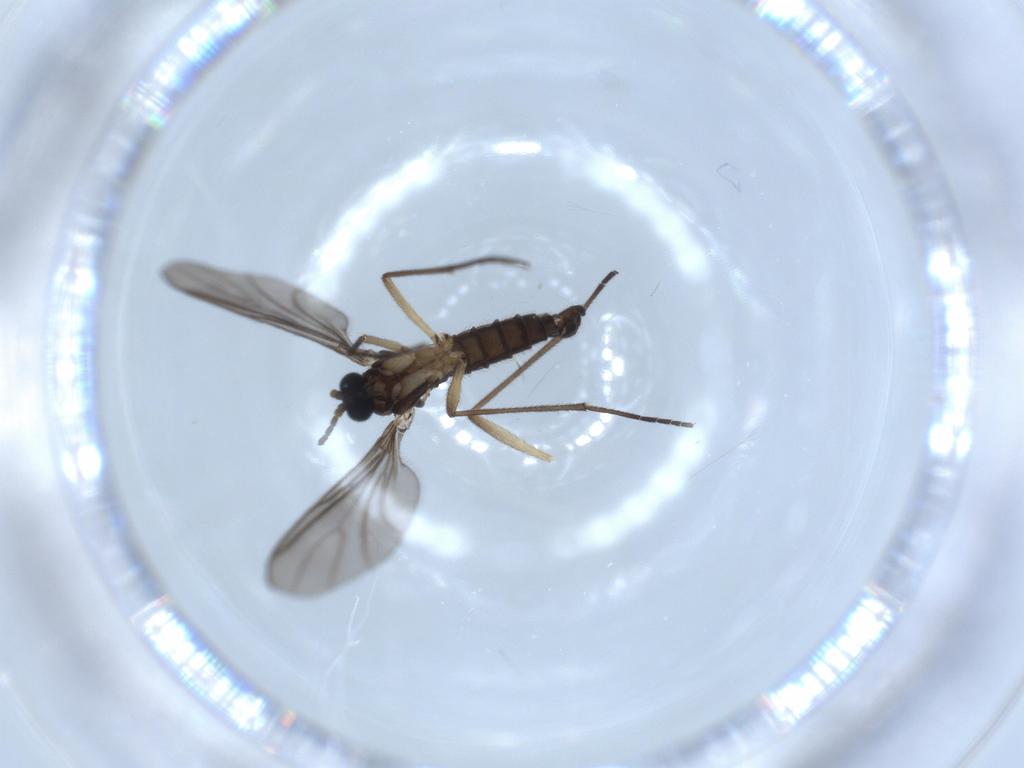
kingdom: Animalia
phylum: Arthropoda
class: Insecta
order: Diptera
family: Sciaridae
